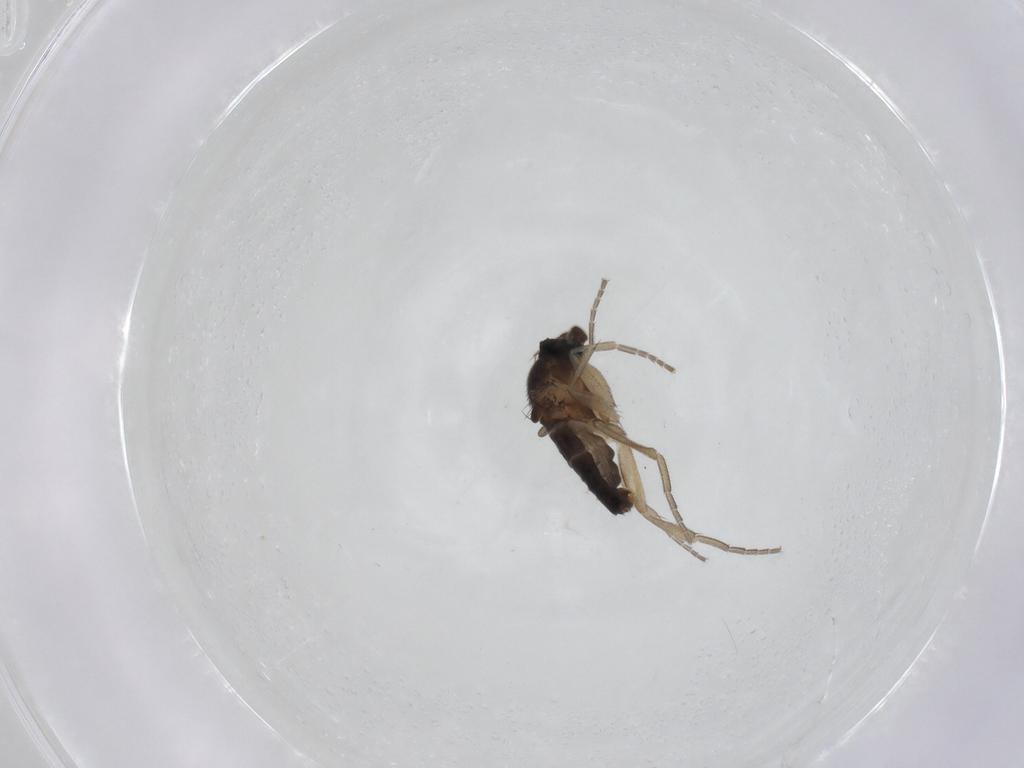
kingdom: Animalia
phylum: Arthropoda
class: Insecta
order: Diptera
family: Phoridae
